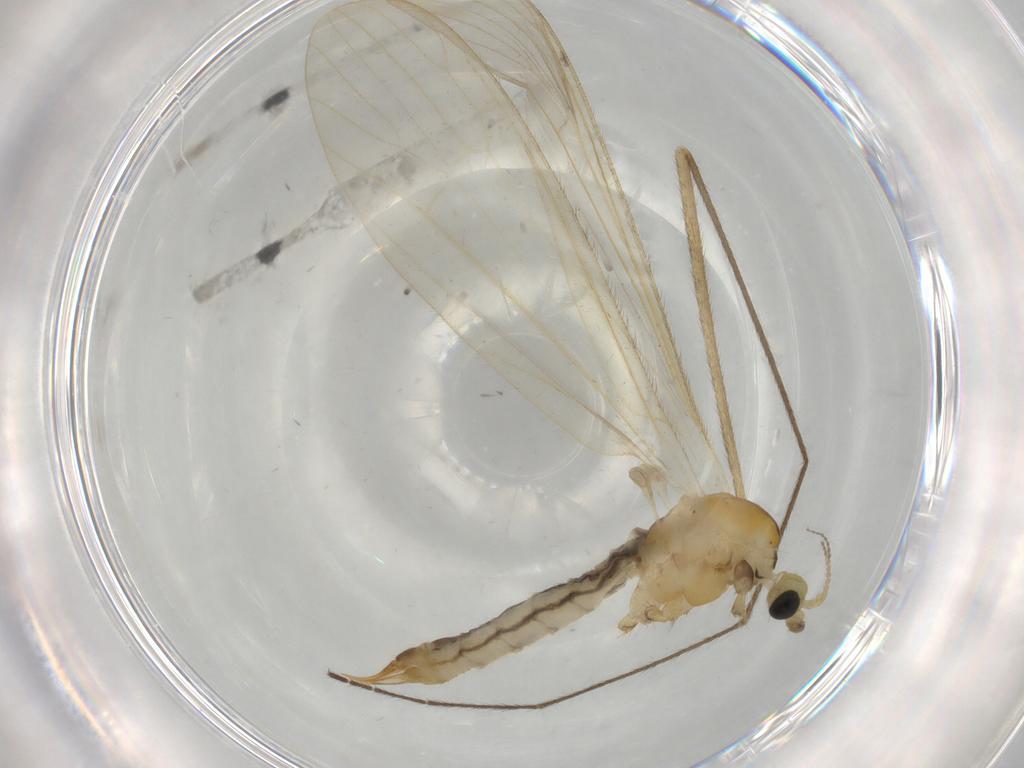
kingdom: Animalia
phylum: Arthropoda
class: Insecta
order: Diptera
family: Limoniidae
